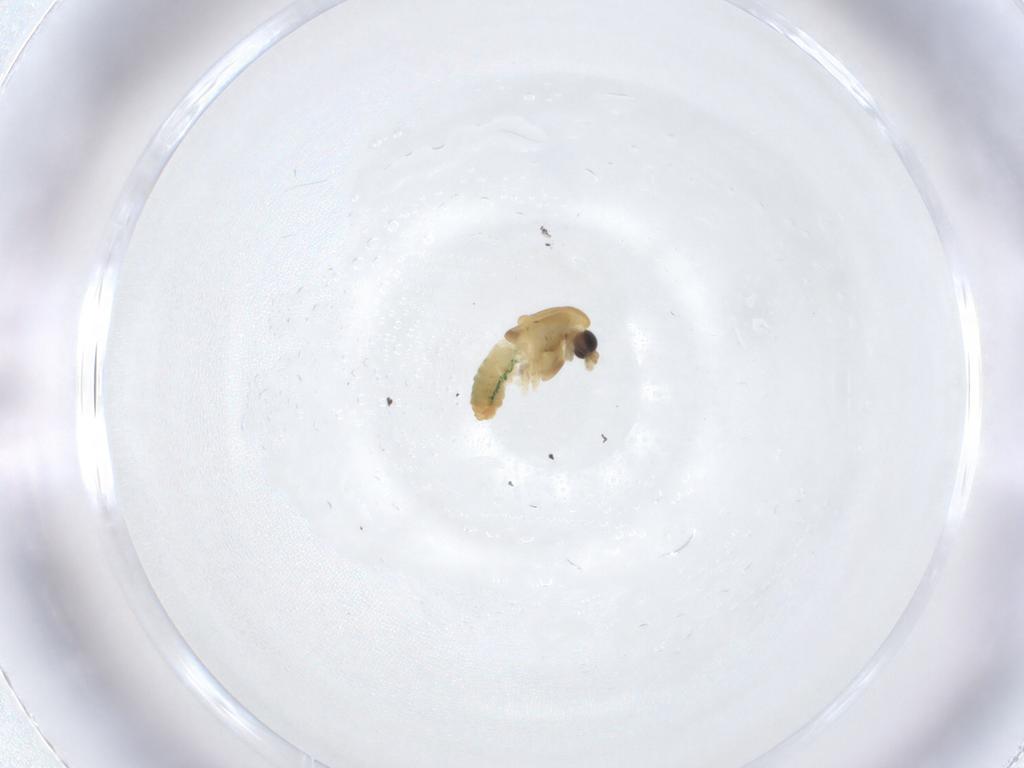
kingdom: Animalia
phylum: Arthropoda
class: Insecta
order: Diptera
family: Chironomidae
